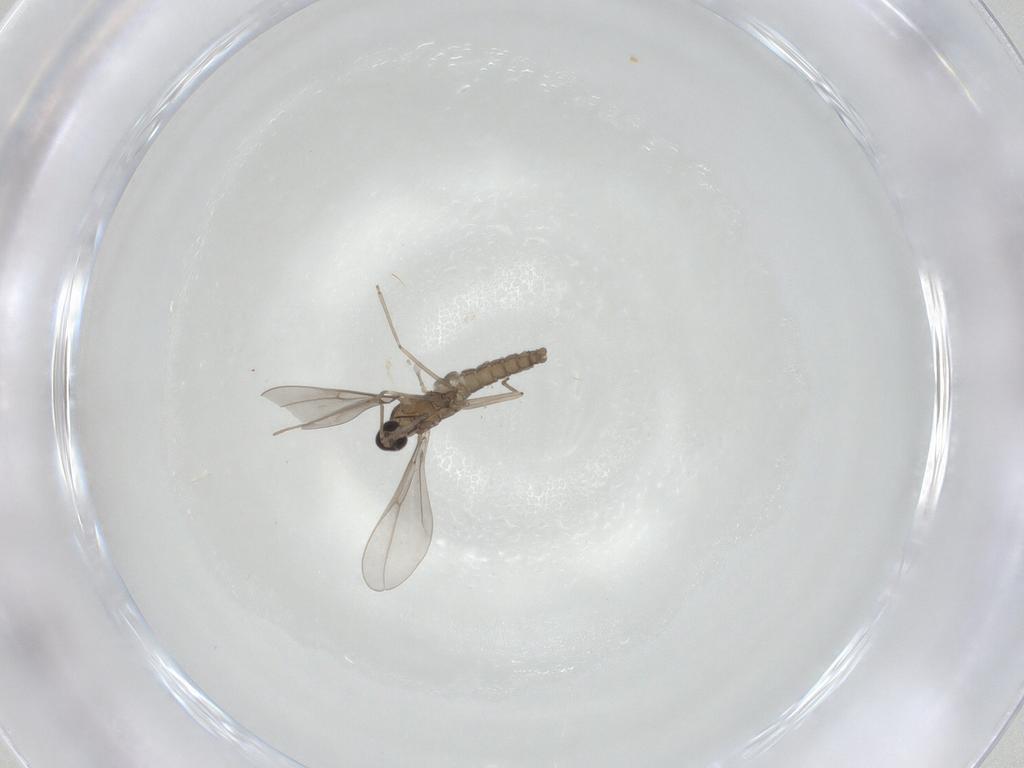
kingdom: Animalia
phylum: Arthropoda
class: Insecta
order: Diptera
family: Cecidomyiidae
